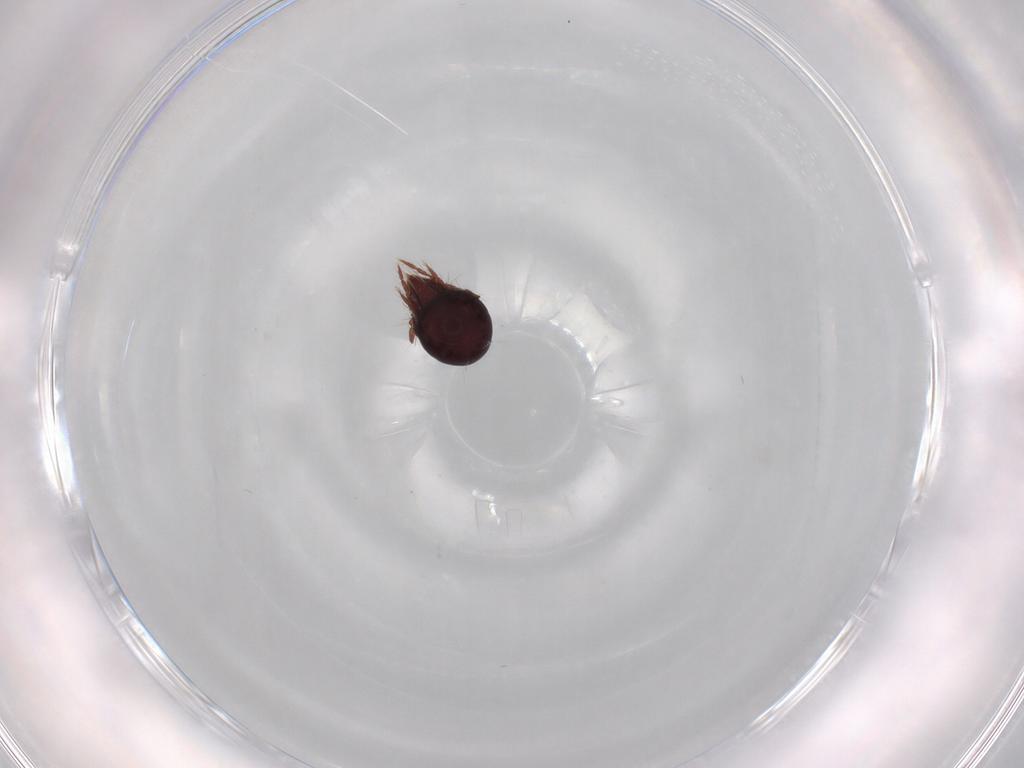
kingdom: Animalia
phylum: Arthropoda
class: Arachnida
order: Sarcoptiformes
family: Ceratoppiidae
